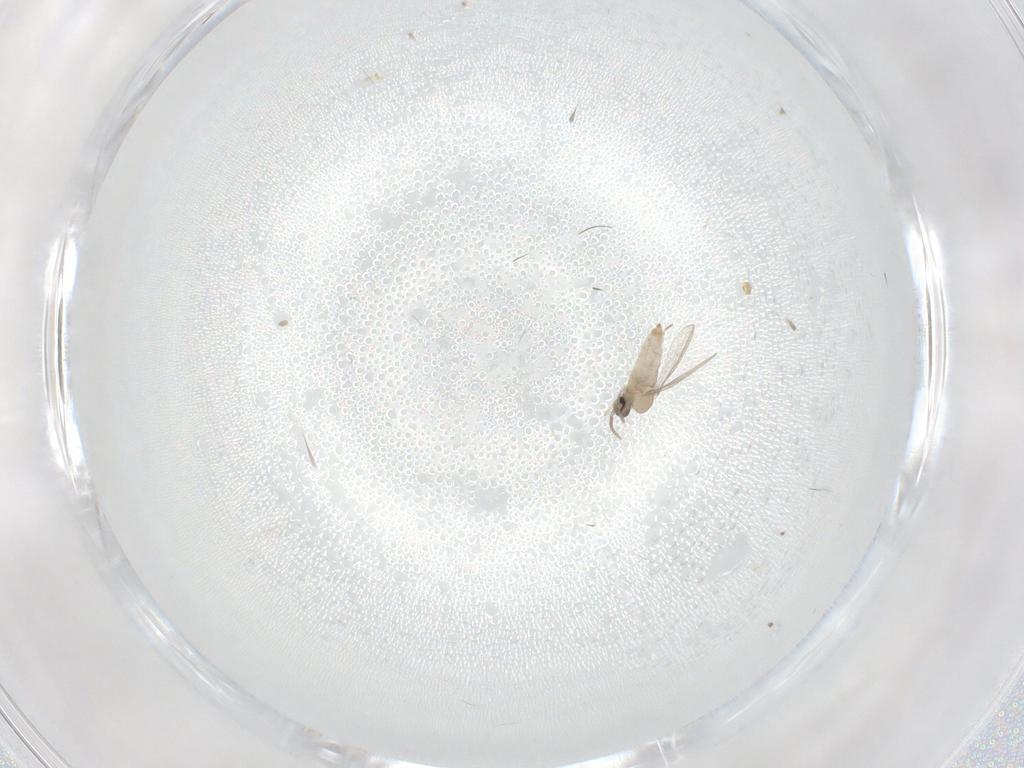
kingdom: Animalia
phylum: Arthropoda
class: Insecta
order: Diptera
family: Cecidomyiidae
